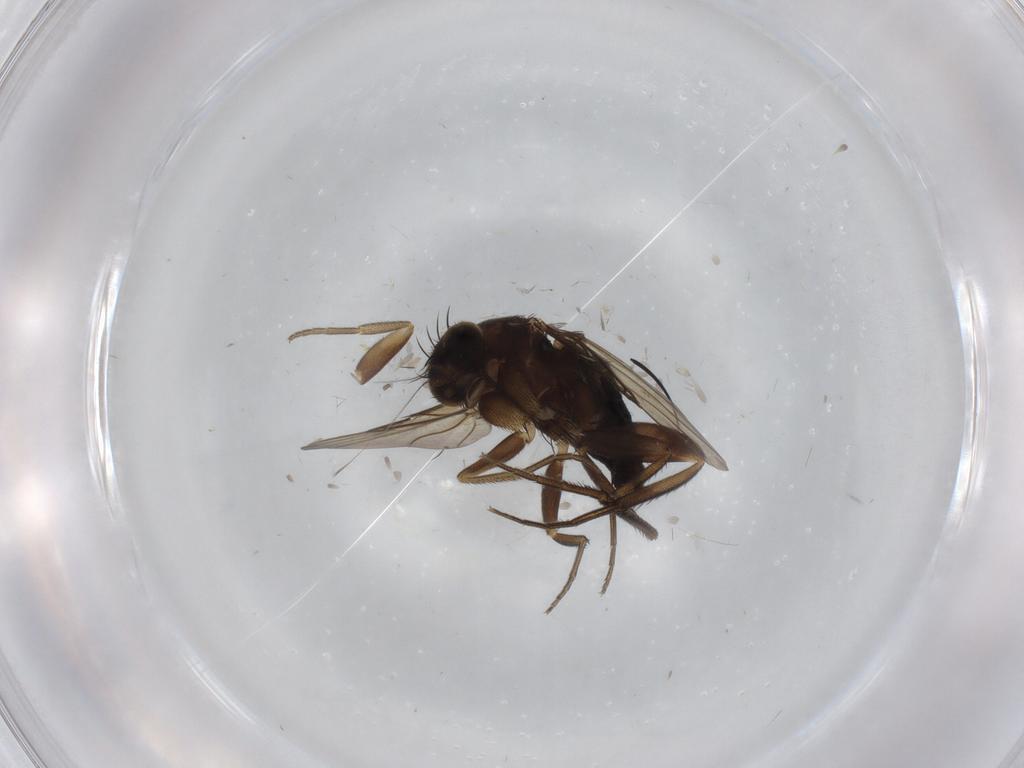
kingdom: Animalia
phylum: Arthropoda
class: Insecta
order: Diptera
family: Phoridae
